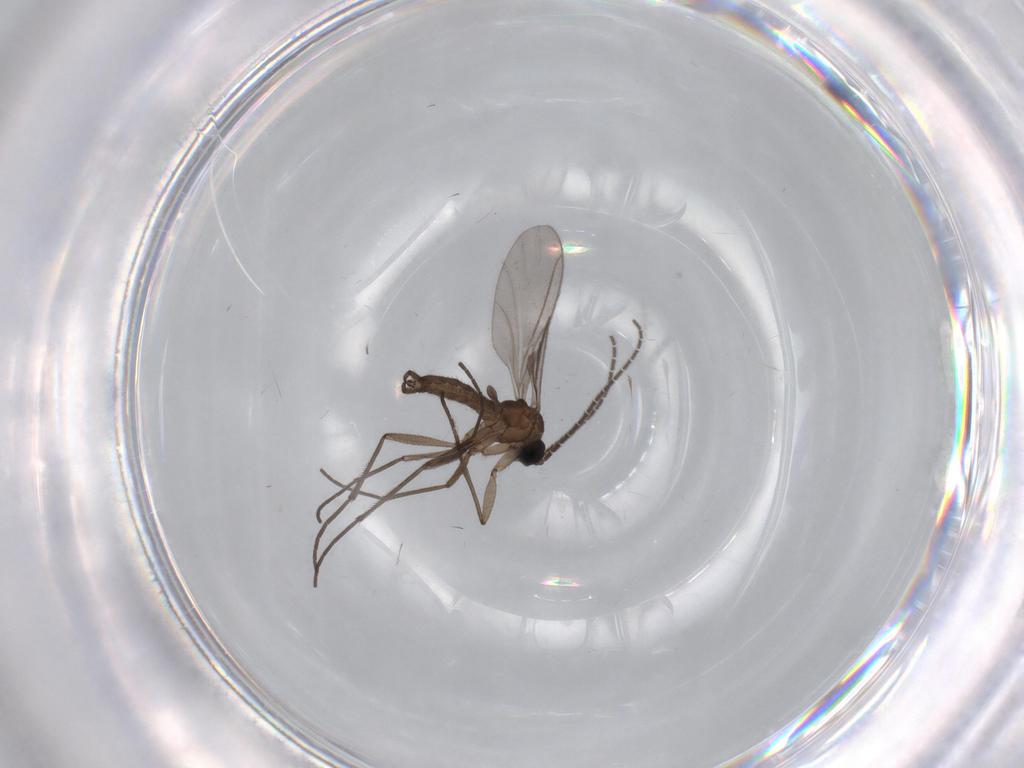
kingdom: Animalia
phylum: Arthropoda
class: Insecta
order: Diptera
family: Sciaridae
